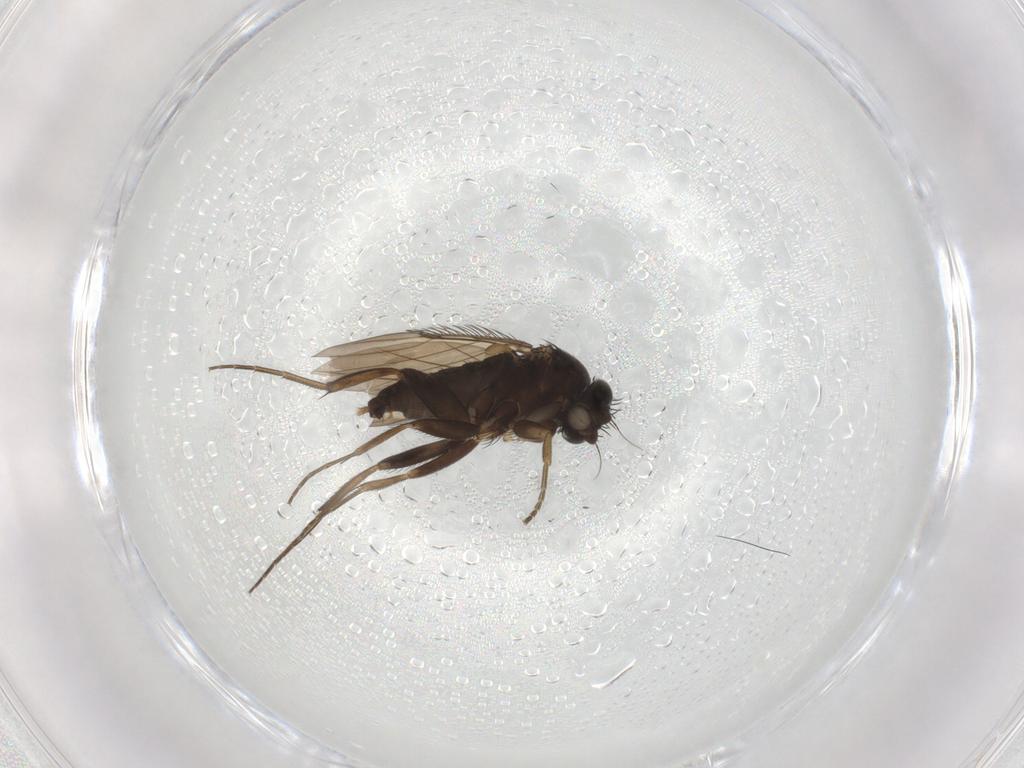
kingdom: Animalia
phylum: Arthropoda
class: Insecta
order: Diptera
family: Phoridae
